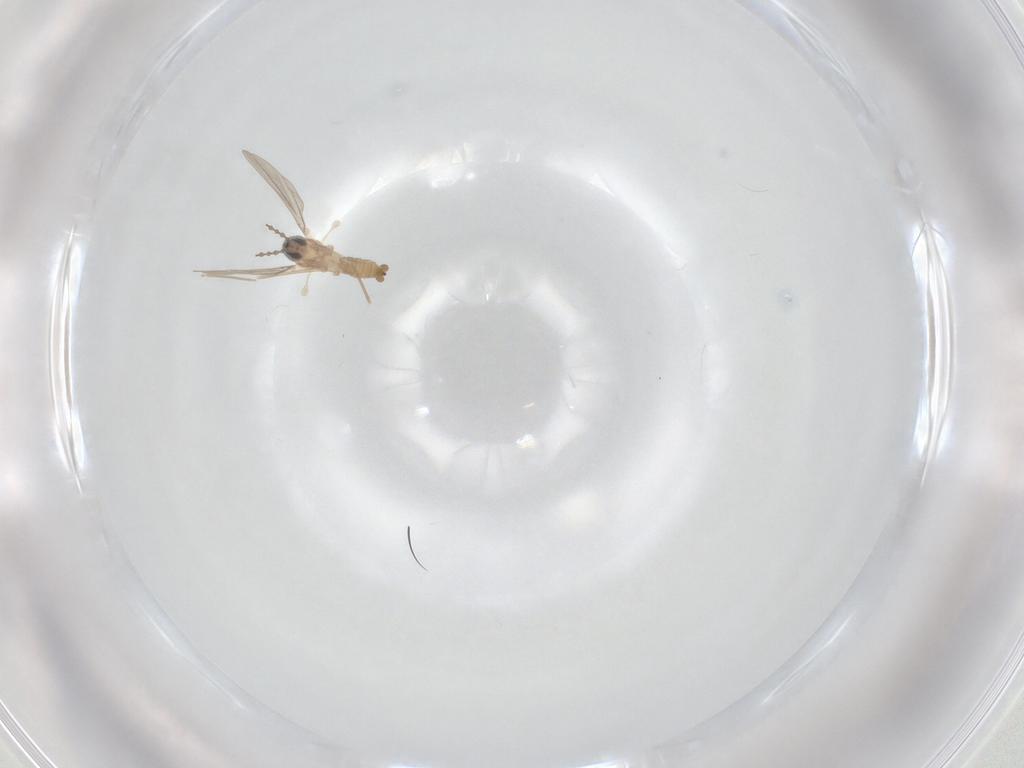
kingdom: Animalia
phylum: Arthropoda
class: Insecta
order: Diptera
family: Cecidomyiidae
